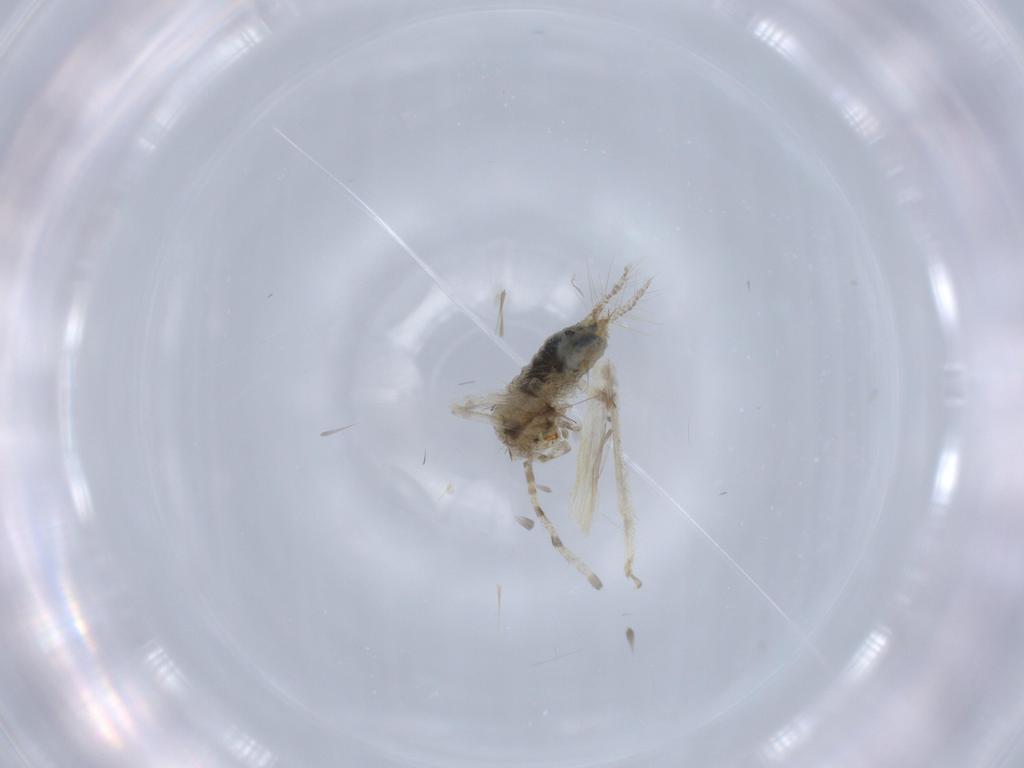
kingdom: Animalia
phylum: Arthropoda
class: Insecta
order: Orthoptera
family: Trigonidiidae
